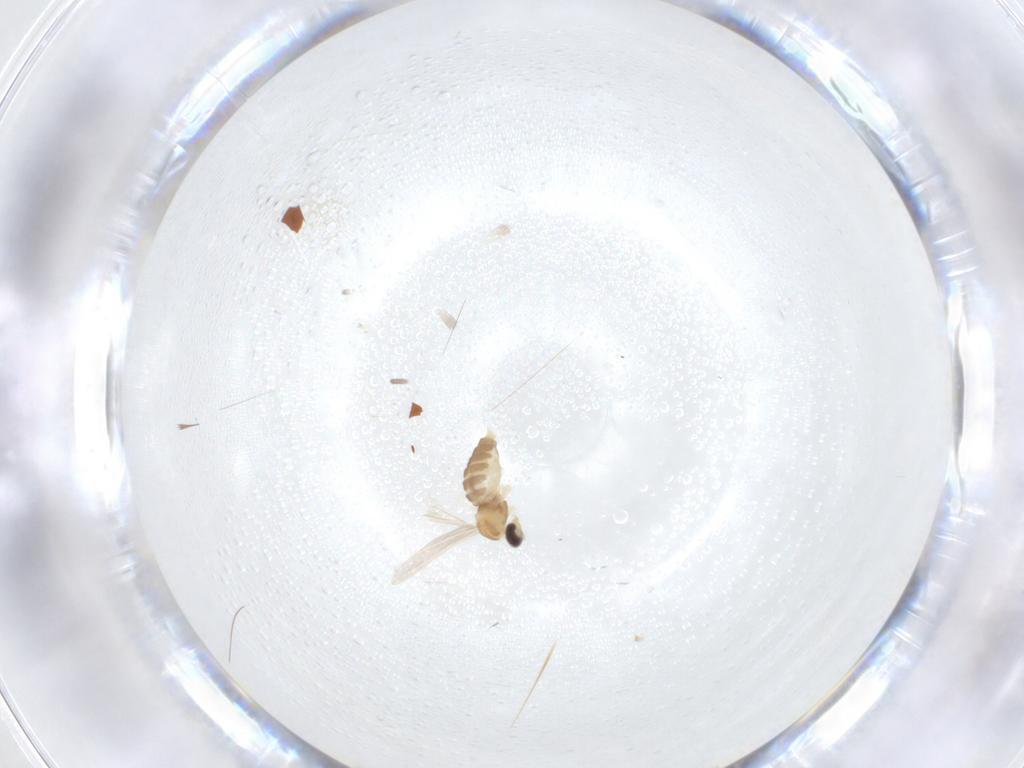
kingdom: Animalia
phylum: Arthropoda
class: Insecta
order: Diptera
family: Cecidomyiidae
